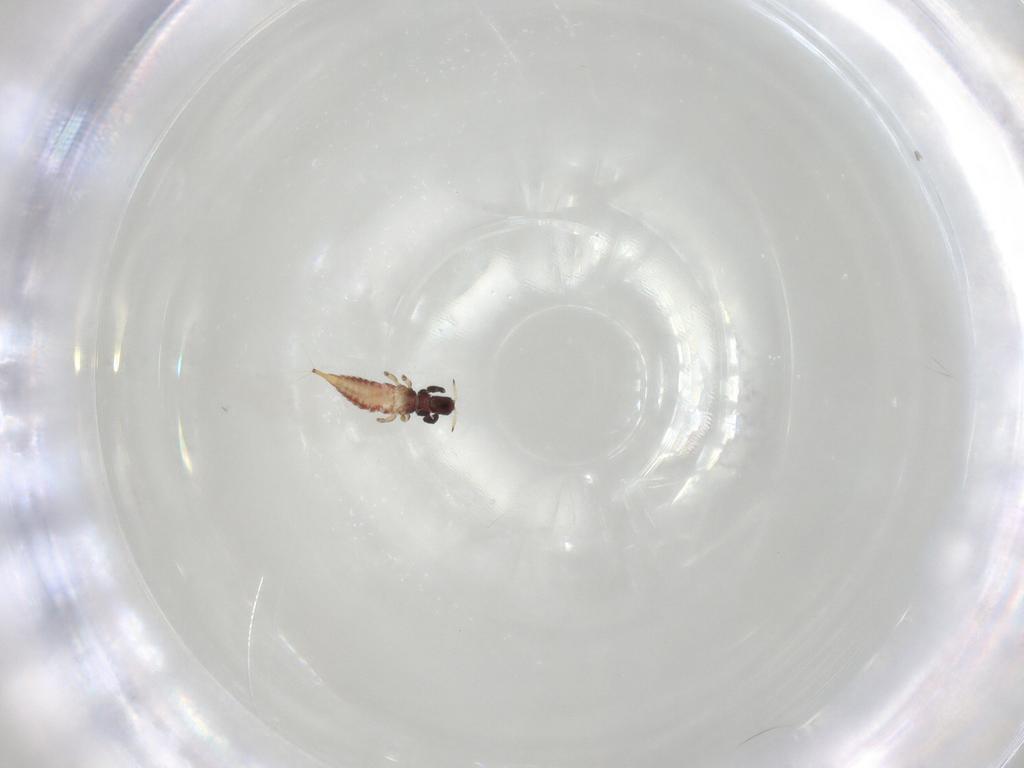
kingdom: Animalia
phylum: Arthropoda
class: Insecta
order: Thysanoptera
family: Phlaeothripidae
